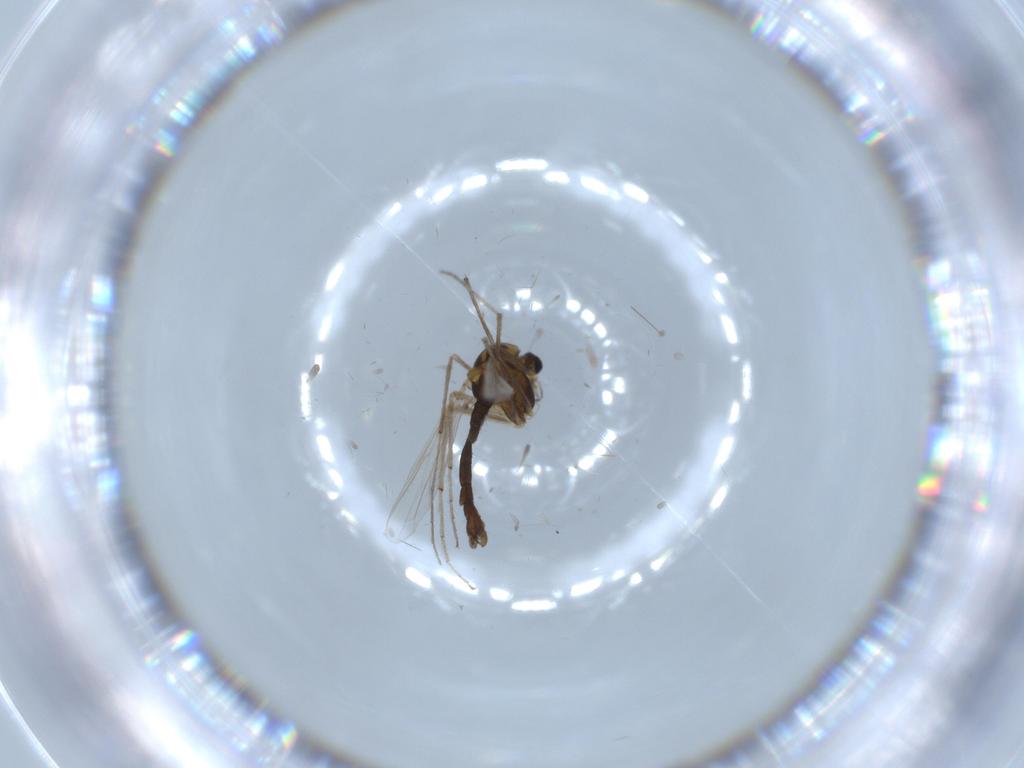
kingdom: Animalia
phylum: Arthropoda
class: Insecta
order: Diptera
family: Chironomidae
